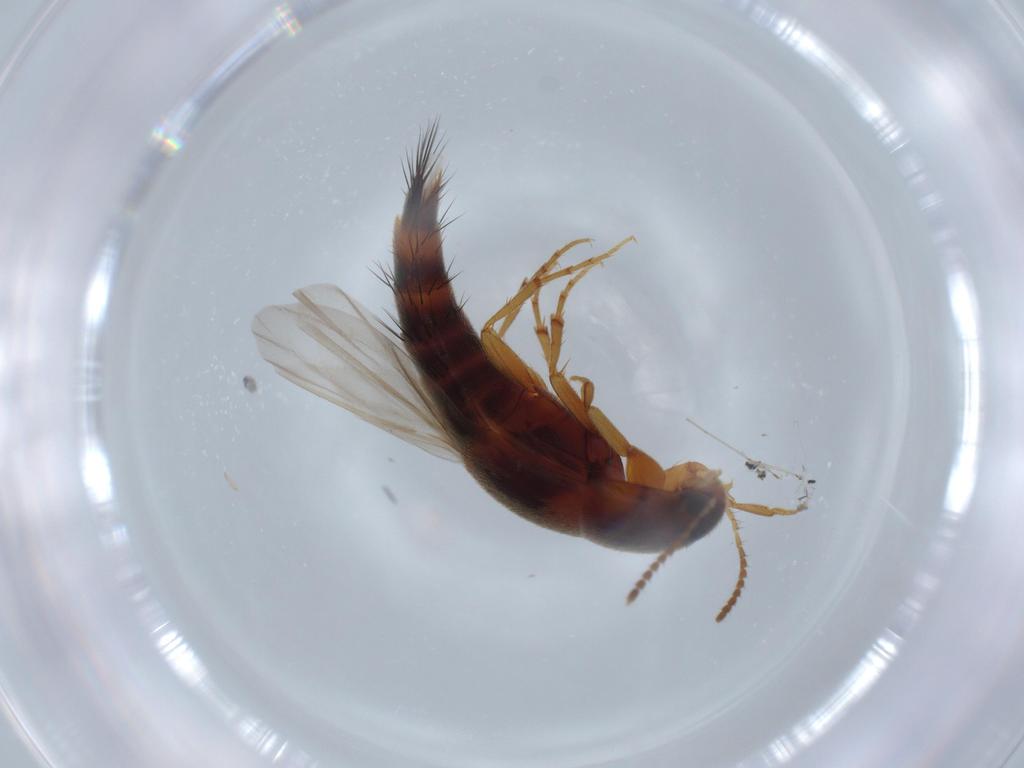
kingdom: Animalia
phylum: Arthropoda
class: Insecta
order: Coleoptera
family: Staphylinidae
